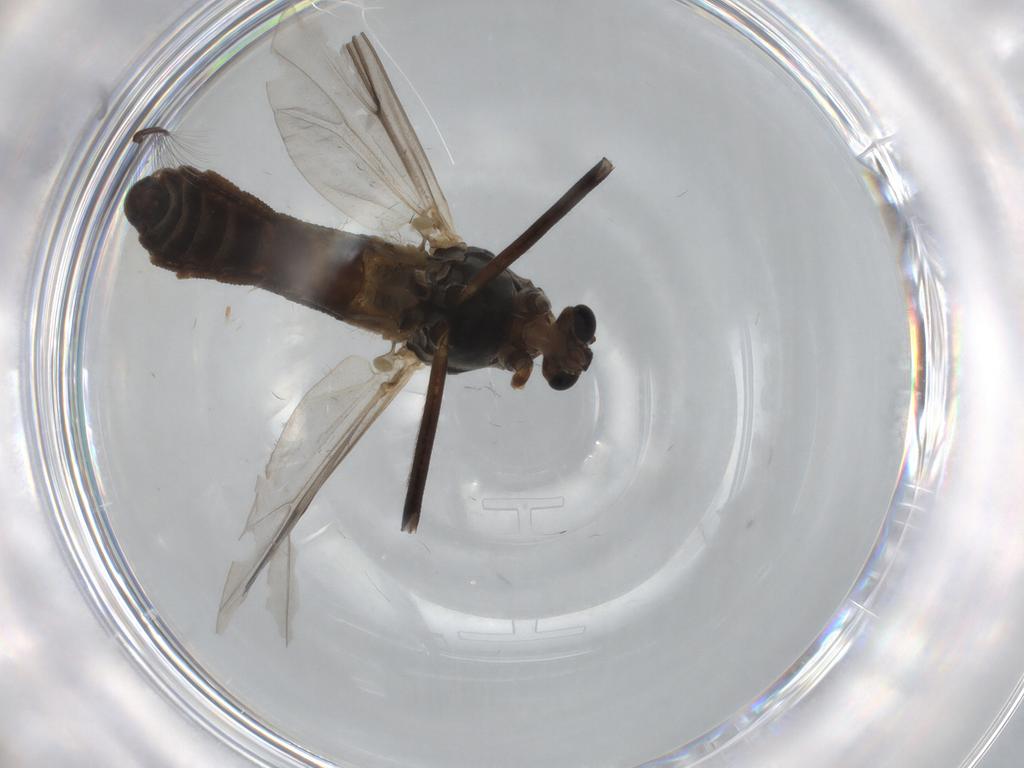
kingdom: Animalia
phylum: Arthropoda
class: Insecta
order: Diptera
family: Chironomidae
